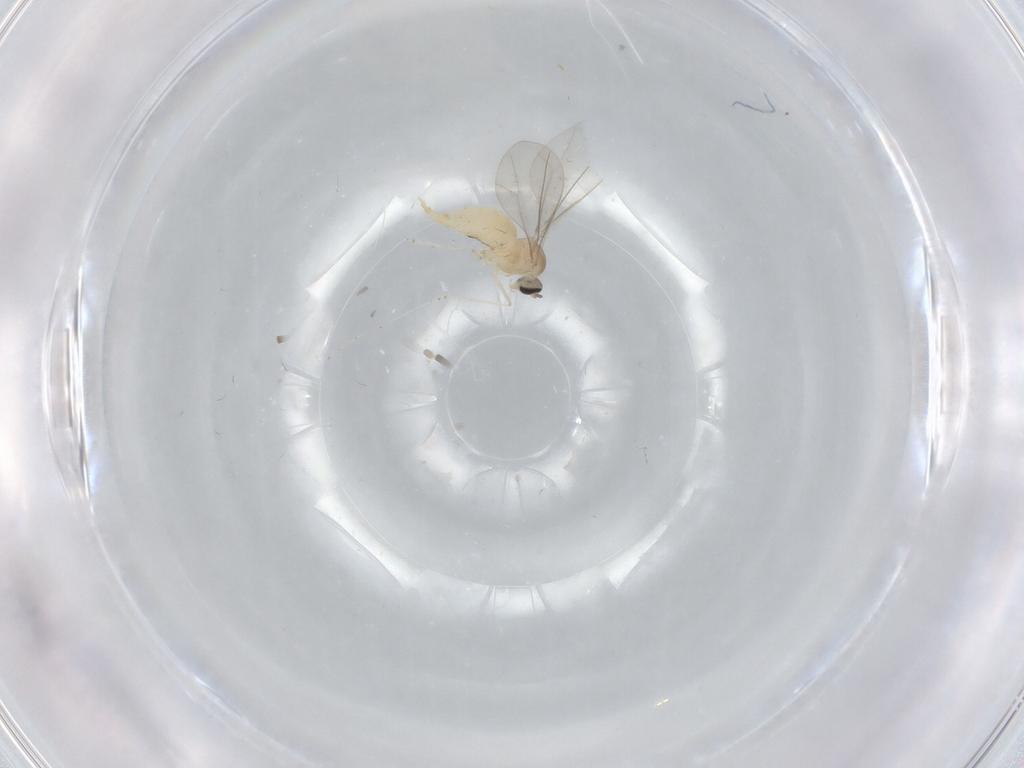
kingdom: Animalia
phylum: Arthropoda
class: Insecta
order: Diptera
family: Cecidomyiidae
